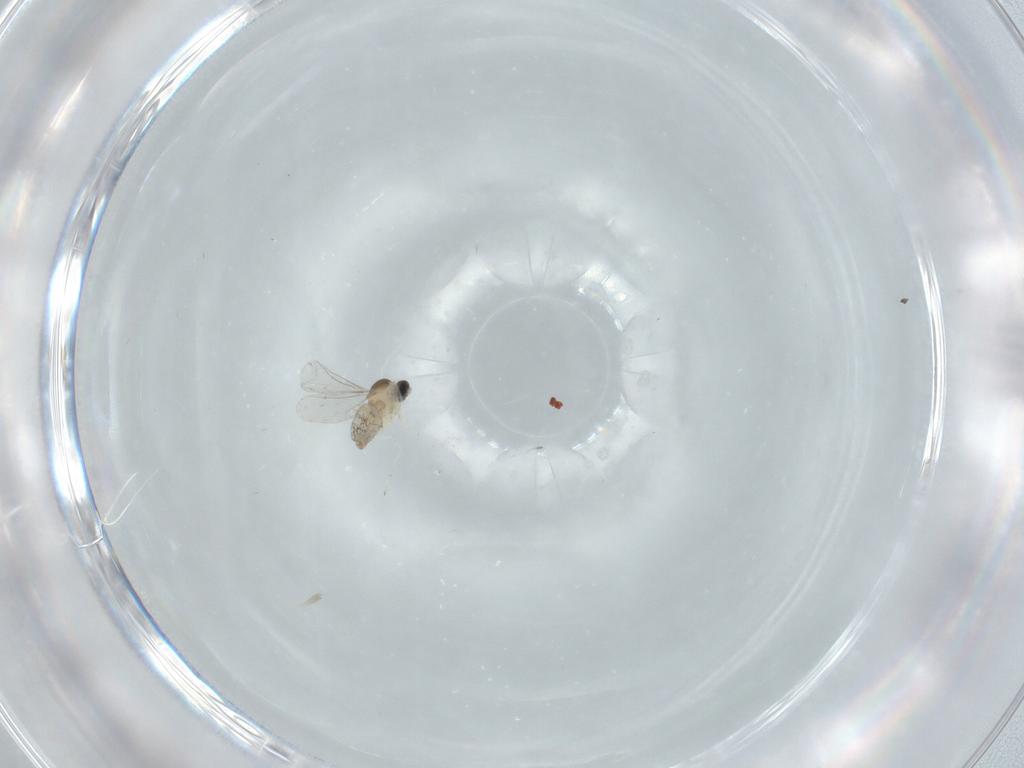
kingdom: Animalia
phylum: Arthropoda
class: Insecta
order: Diptera
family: Cecidomyiidae
